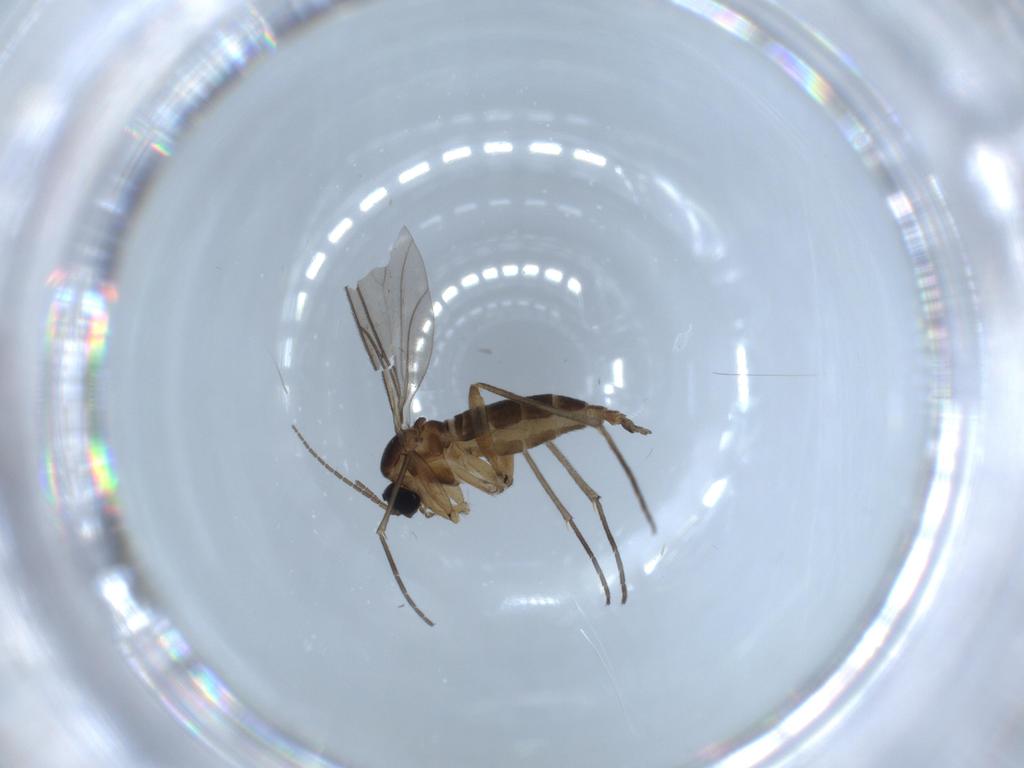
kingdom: Animalia
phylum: Arthropoda
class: Insecta
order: Diptera
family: Sciaridae
